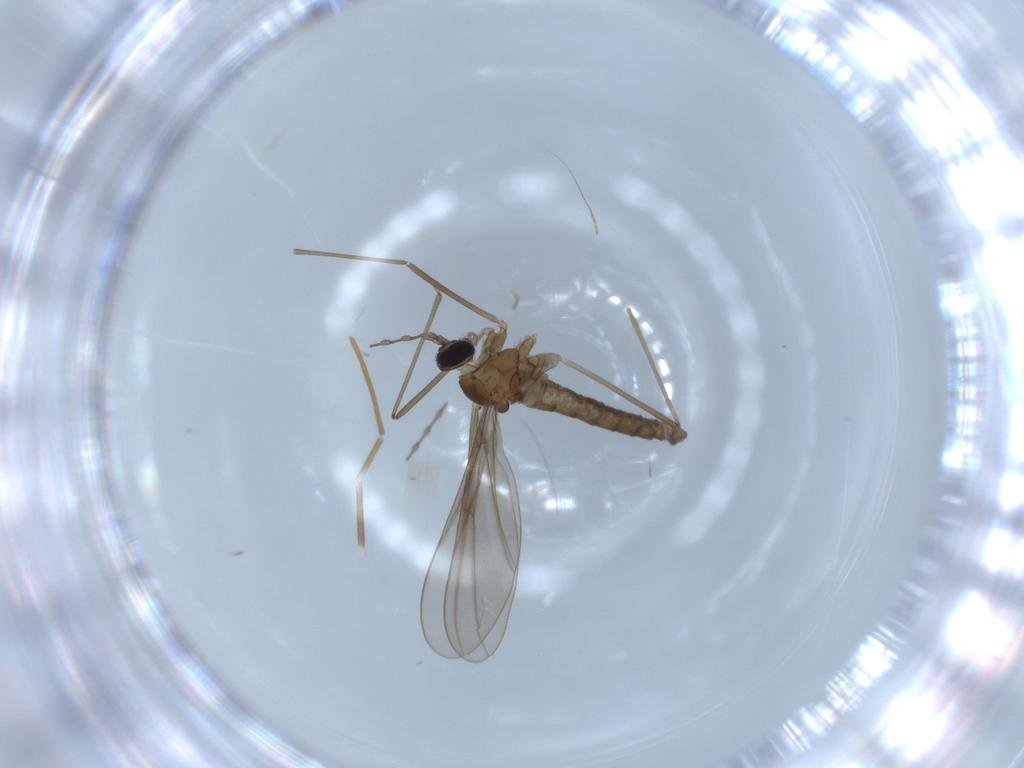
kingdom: Animalia
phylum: Arthropoda
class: Insecta
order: Diptera
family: Cecidomyiidae
